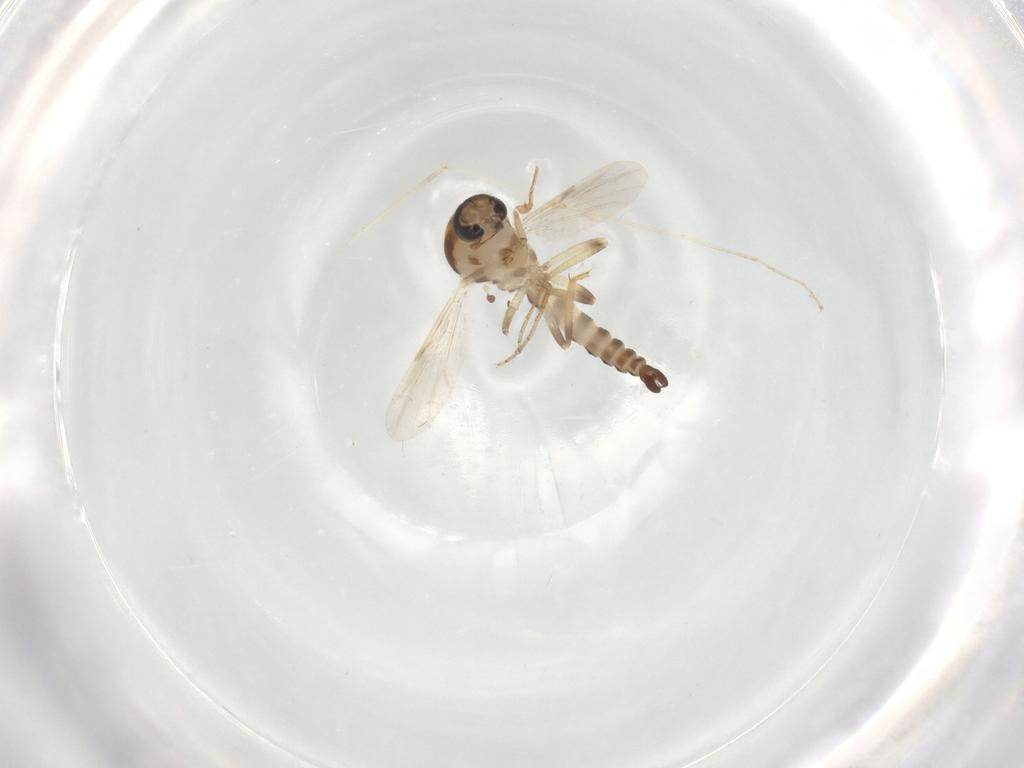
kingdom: Animalia
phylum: Arthropoda
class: Insecta
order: Diptera
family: Ceratopogonidae
